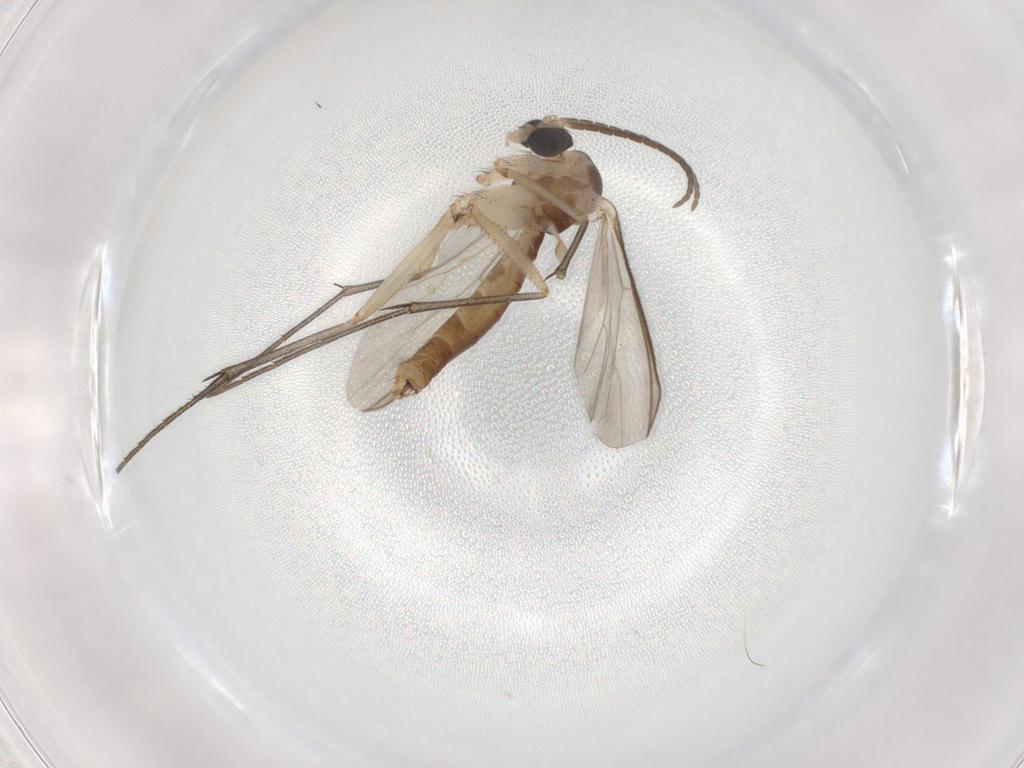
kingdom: Animalia
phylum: Arthropoda
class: Insecta
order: Diptera
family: Mycetophilidae
